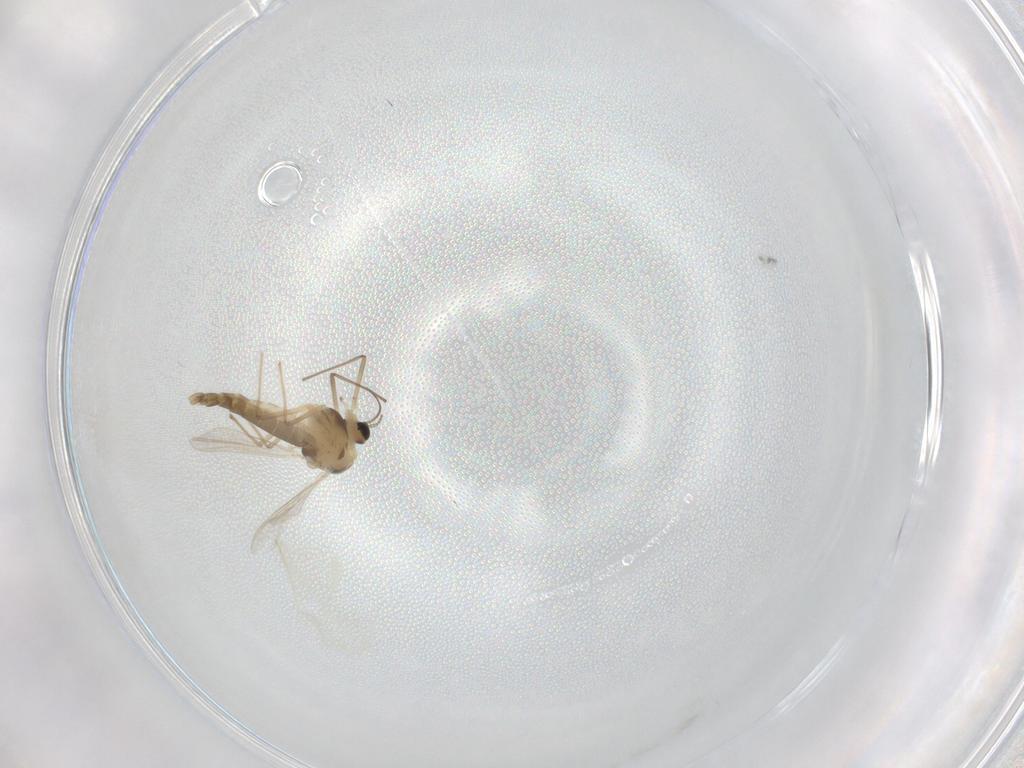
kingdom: Animalia
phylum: Arthropoda
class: Insecta
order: Diptera
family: Chironomidae
